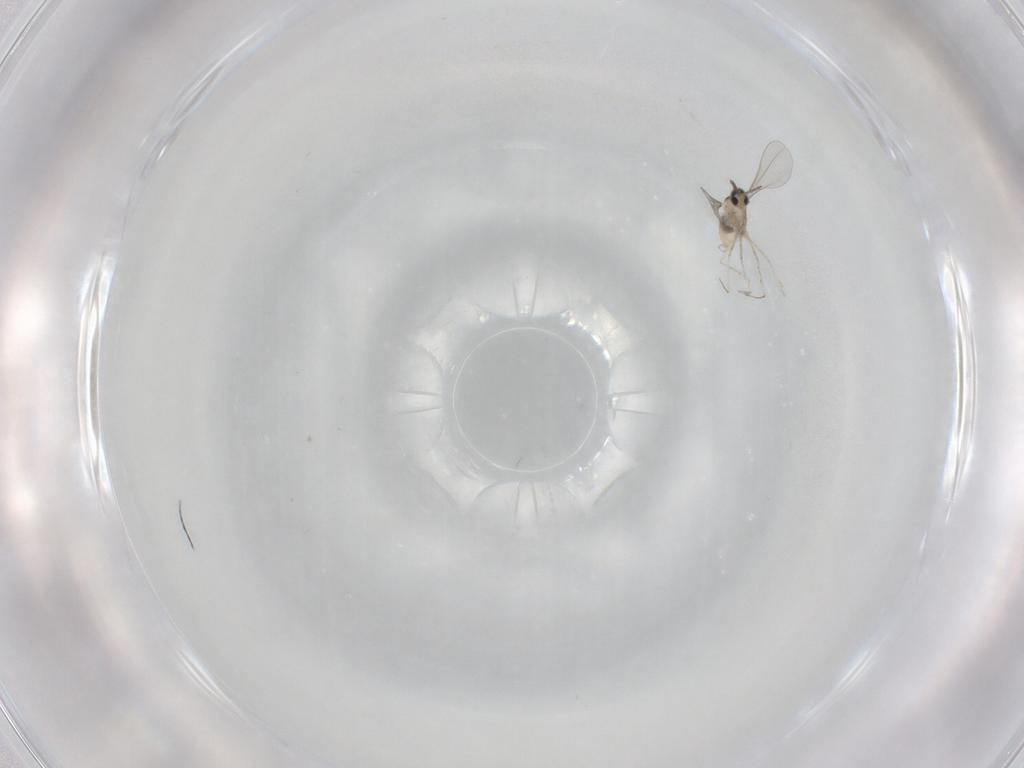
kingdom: Animalia
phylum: Arthropoda
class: Insecta
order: Diptera
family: Cecidomyiidae
